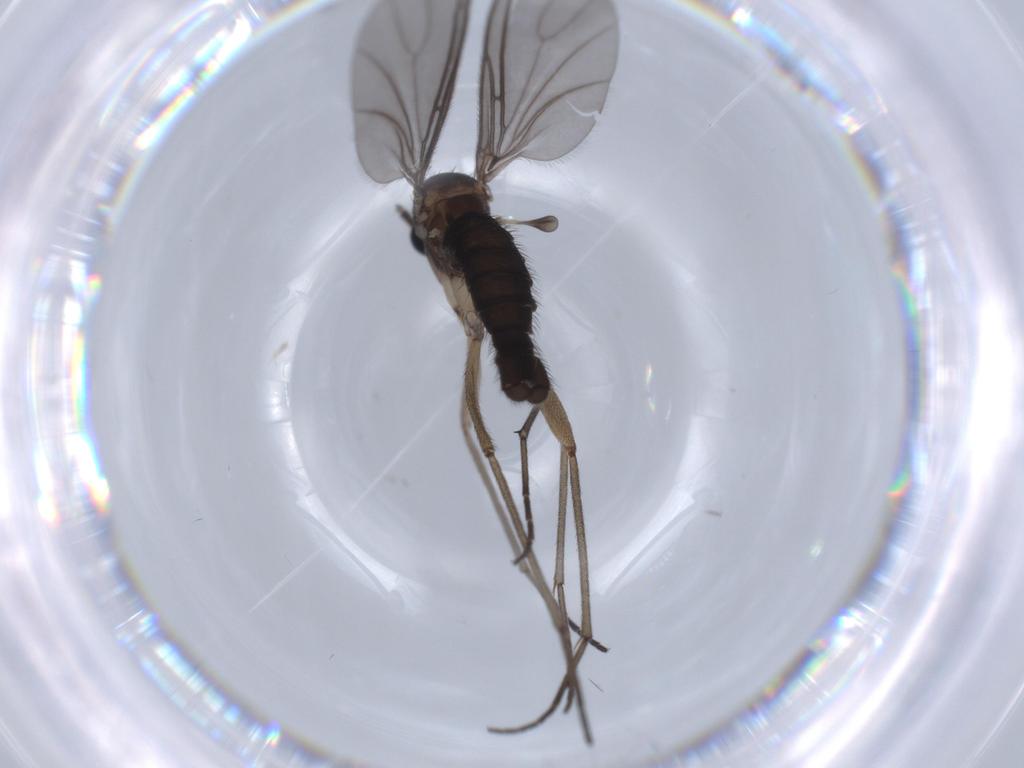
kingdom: Animalia
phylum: Arthropoda
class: Insecta
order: Diptera
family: Sciaridae
